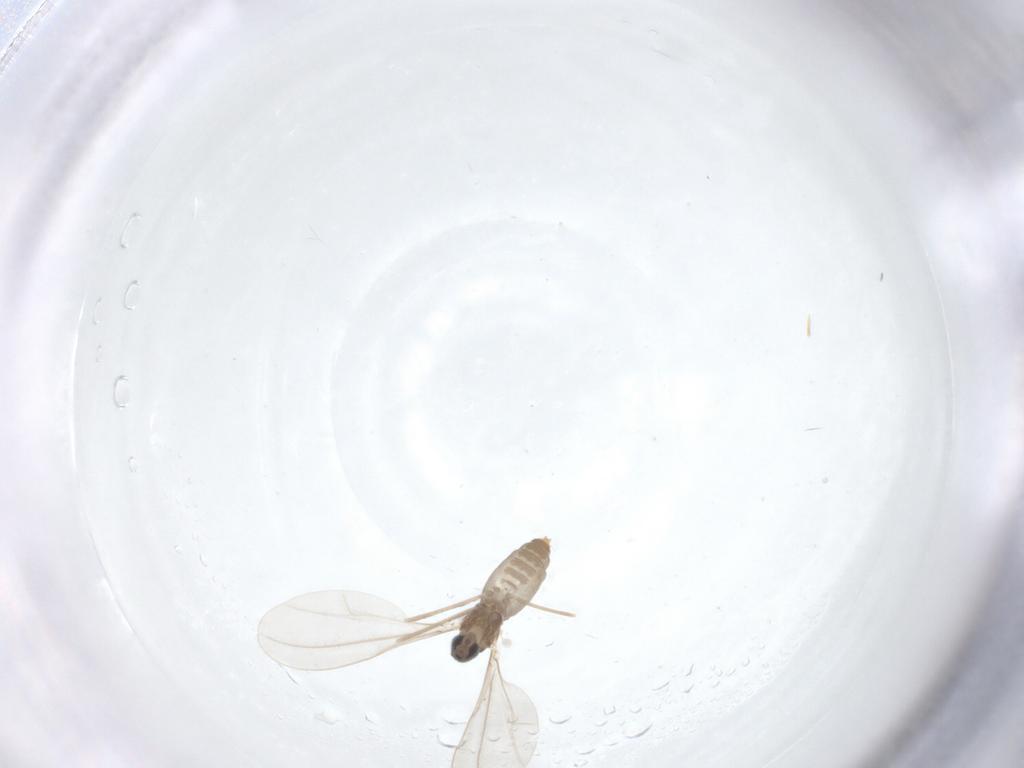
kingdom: Animalia
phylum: Arthropoda
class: Insecta
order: Diptera
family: Cecidomyiidae
